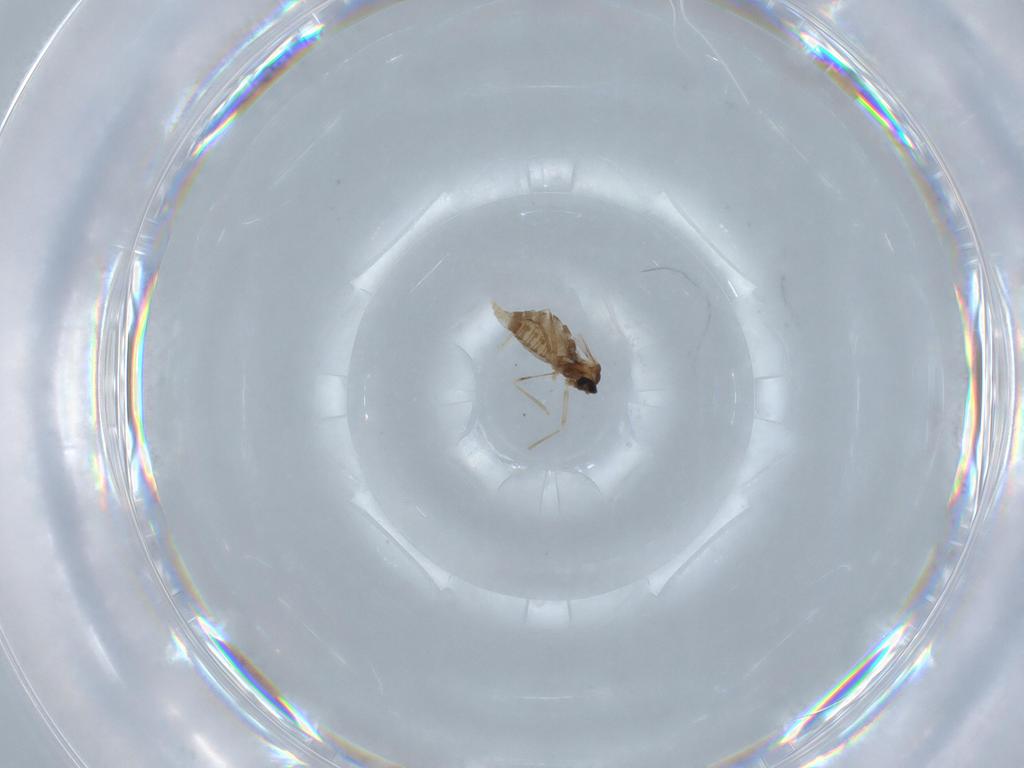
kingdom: Animalia
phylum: Arthropoda
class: Insecta
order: Diptera
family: Cecidomyiidae
